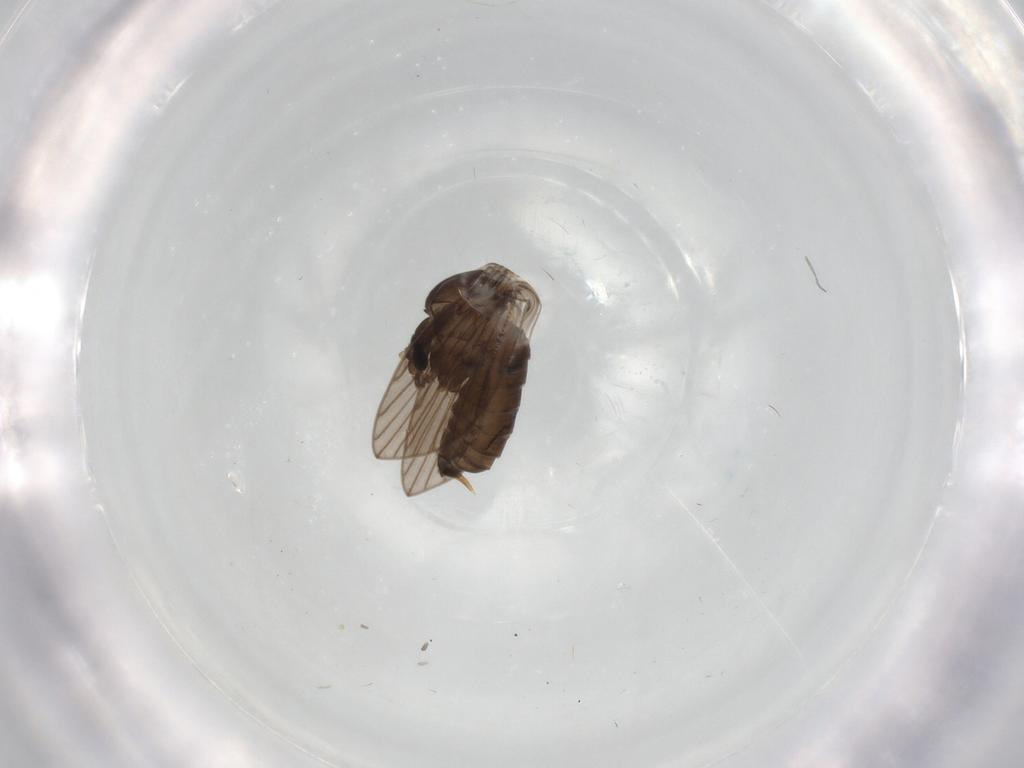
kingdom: Animalia
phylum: Arthropoda
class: Insecta
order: Diptera
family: Psychodidae
